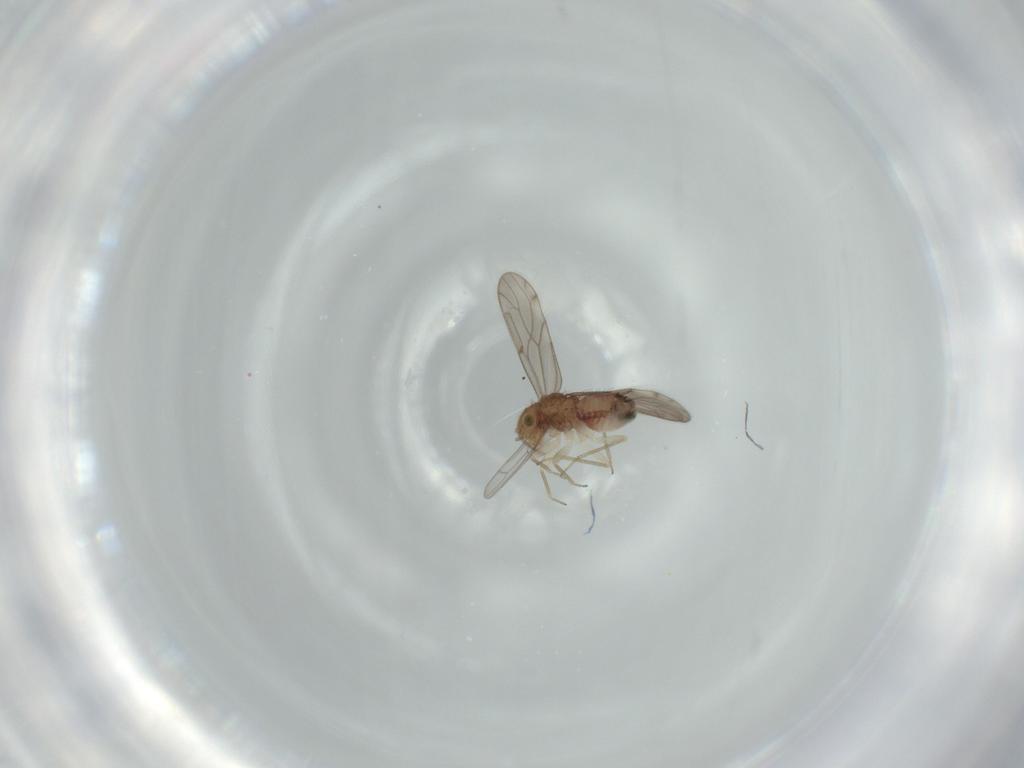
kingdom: Animalia
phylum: Arthropoda
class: Insecta
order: Psocodea
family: Ectopsocidae
